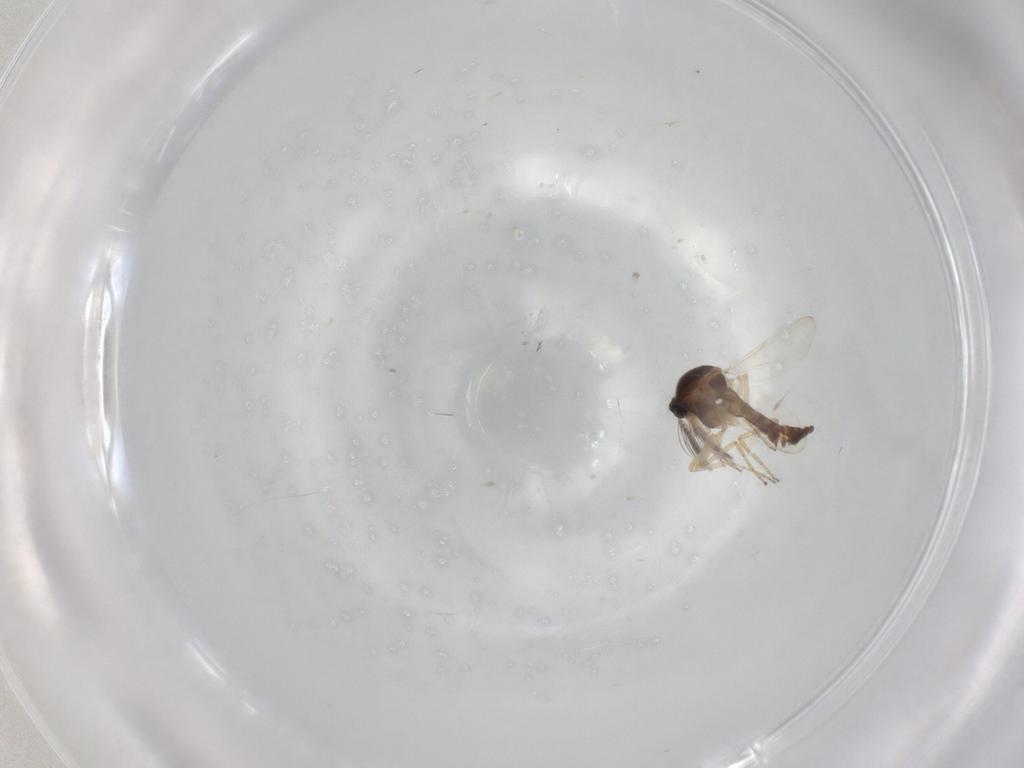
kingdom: Animalia
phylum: Arthropoda
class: Insecta
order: Diptera
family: Ceratopogonidae
